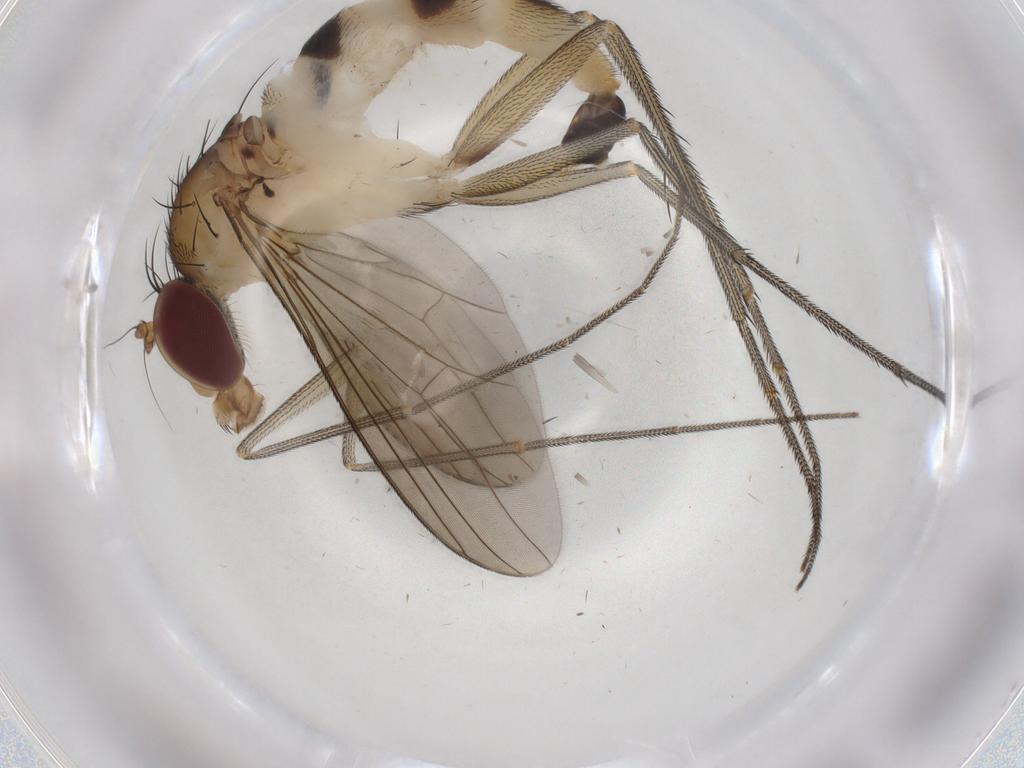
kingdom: Animalia
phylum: Arthropoda
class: Insecta
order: Diptera
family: Dolichopodidae
